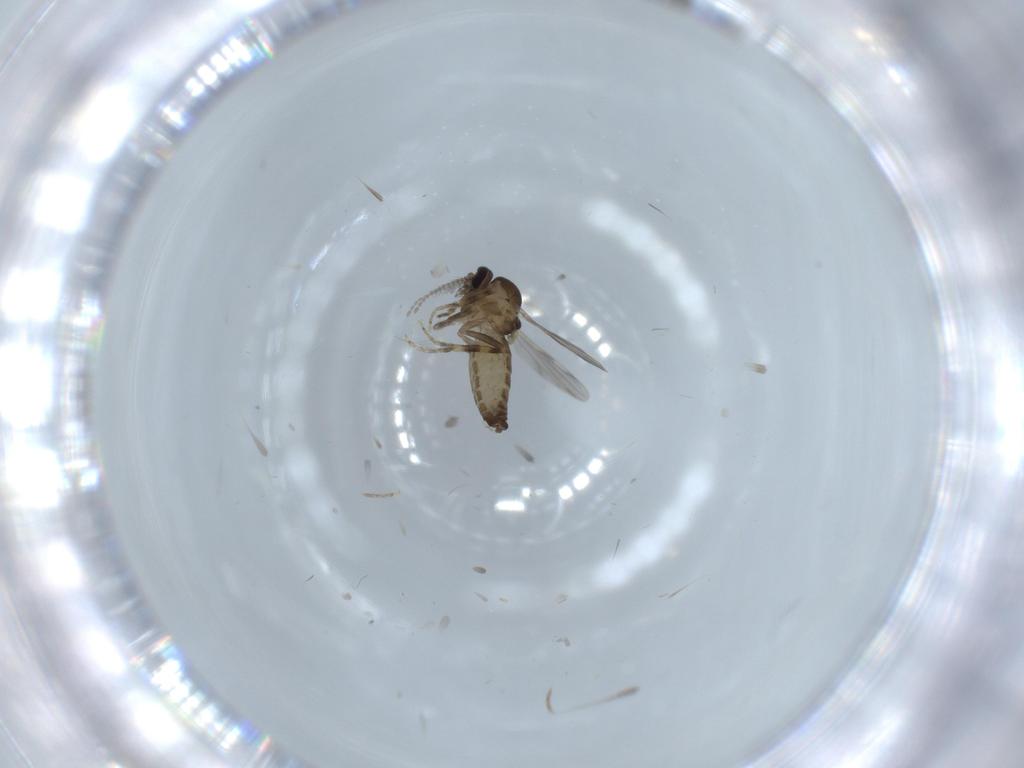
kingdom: Animalia
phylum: Arthropoda
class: Insecta
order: Diptera
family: Ceratopogonidae
